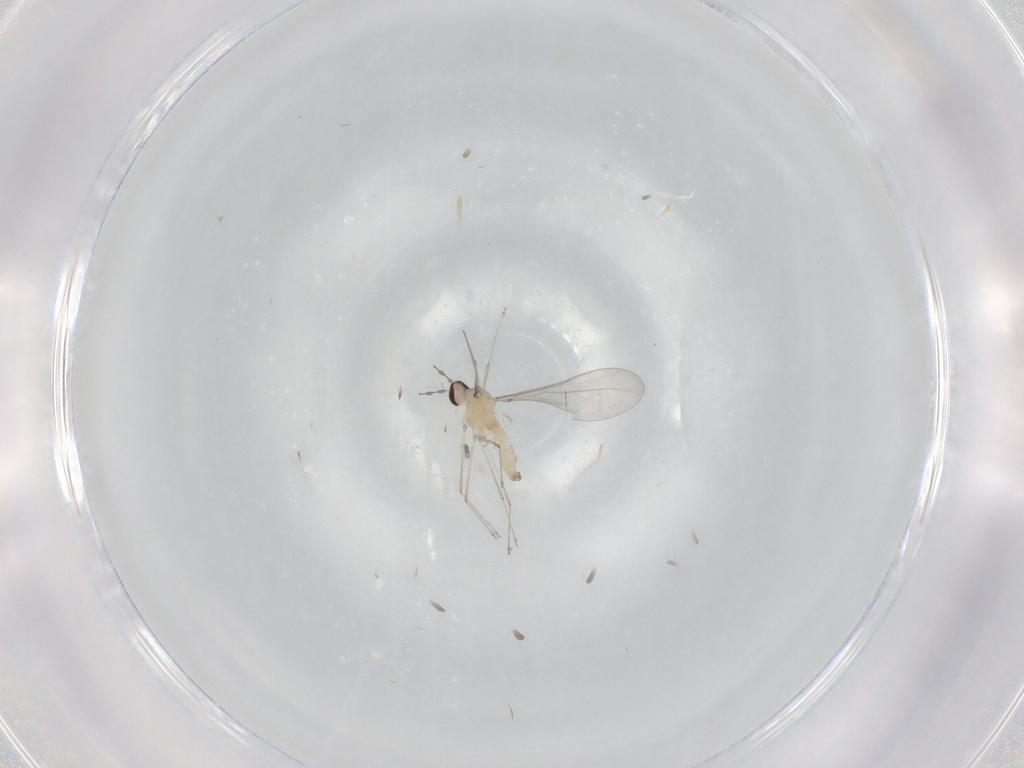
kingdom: Animalia
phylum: Arthropoda
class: Insecta
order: Diptera
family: Cecidomyiidae
